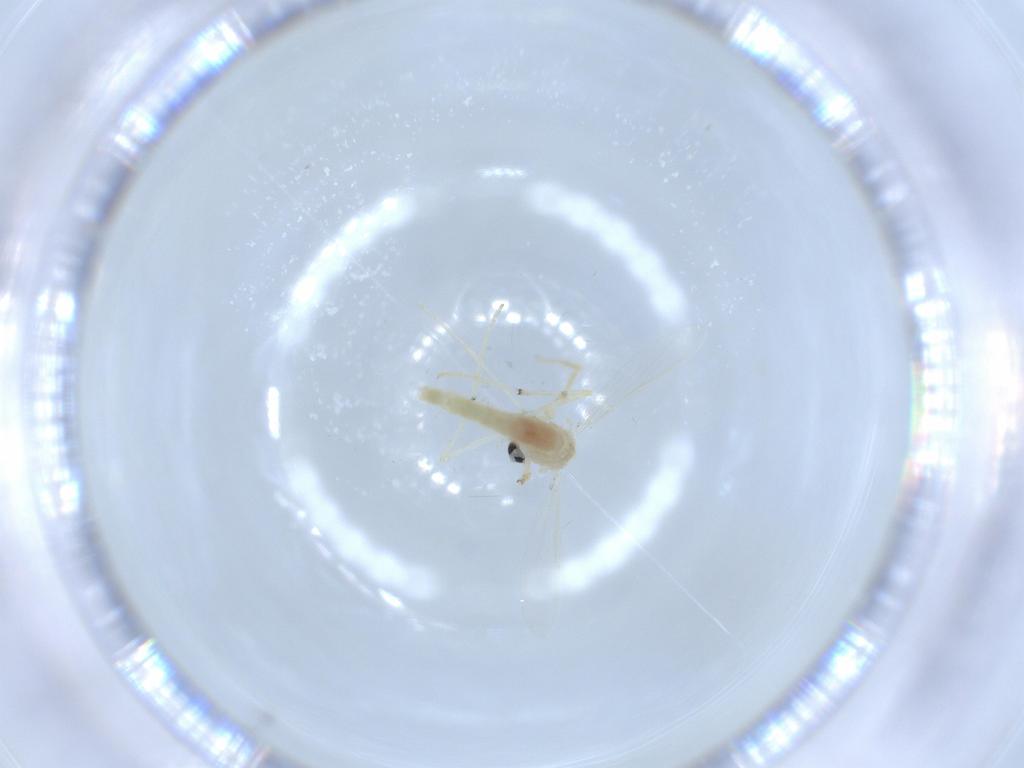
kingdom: Animalia
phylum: Arthropoda
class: Insecta
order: Diptera
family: Chironomidae
